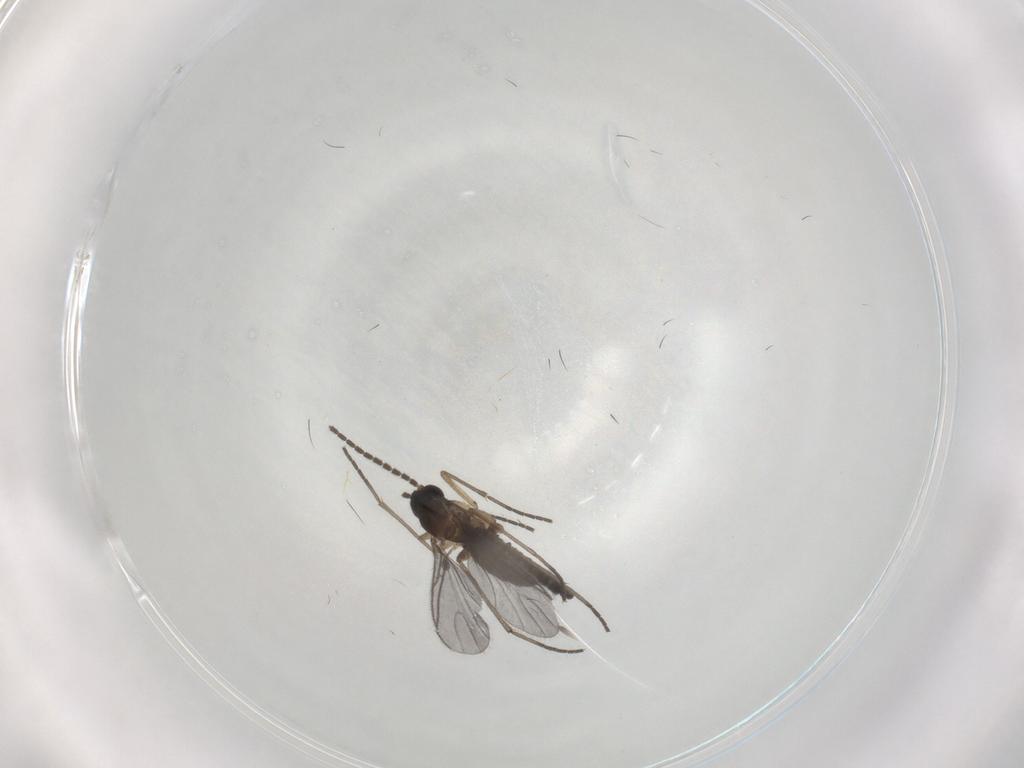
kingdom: Animalia
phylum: Arthropoda
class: Insecta
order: Diptera
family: Sciaridae
